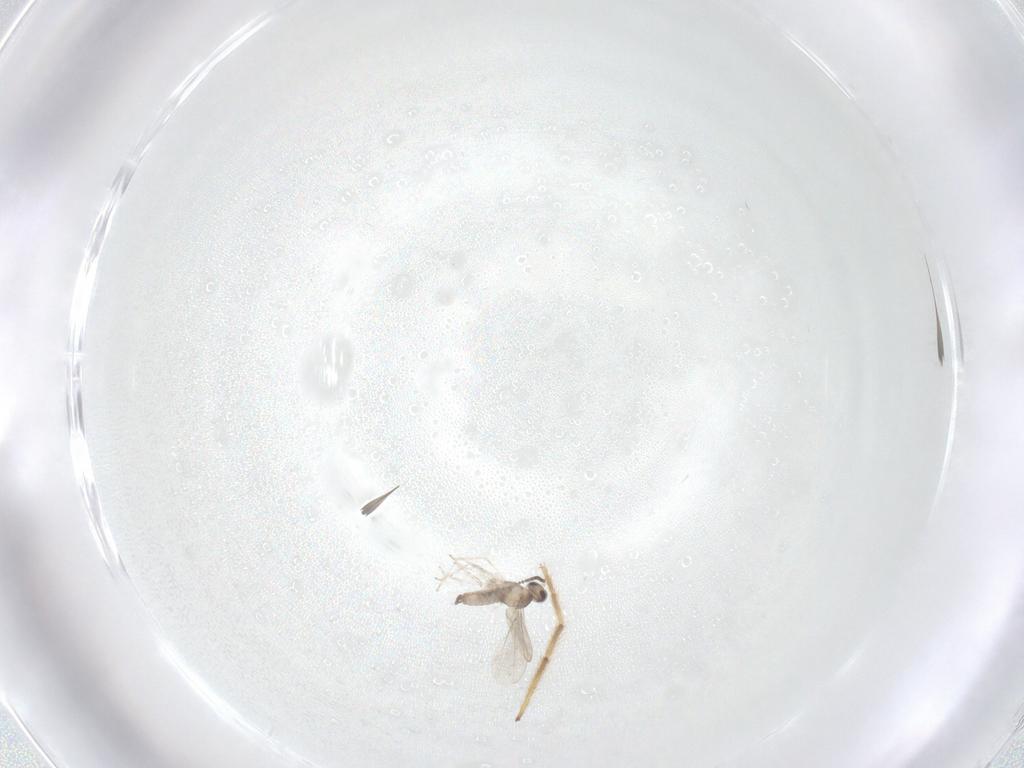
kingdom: Animalia
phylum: Arthropoda
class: Insecta
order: Diptera
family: Chironomidae
